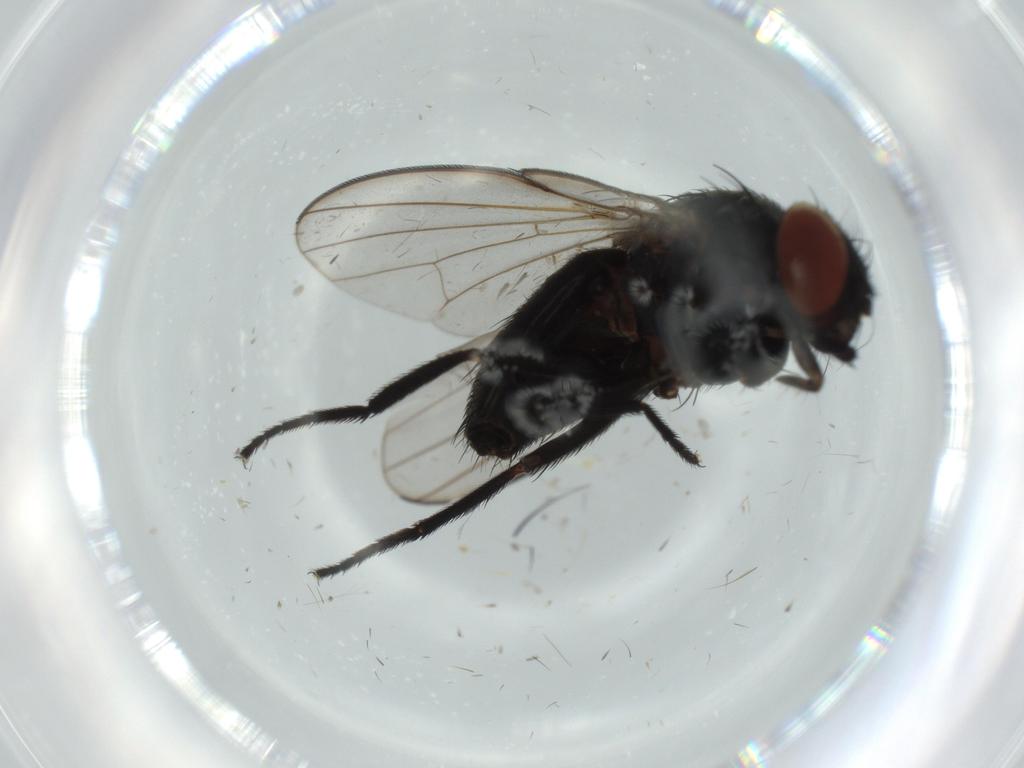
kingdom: Animalia
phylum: Arthropoda
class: Insecta
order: Diptera
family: Milichiidae
